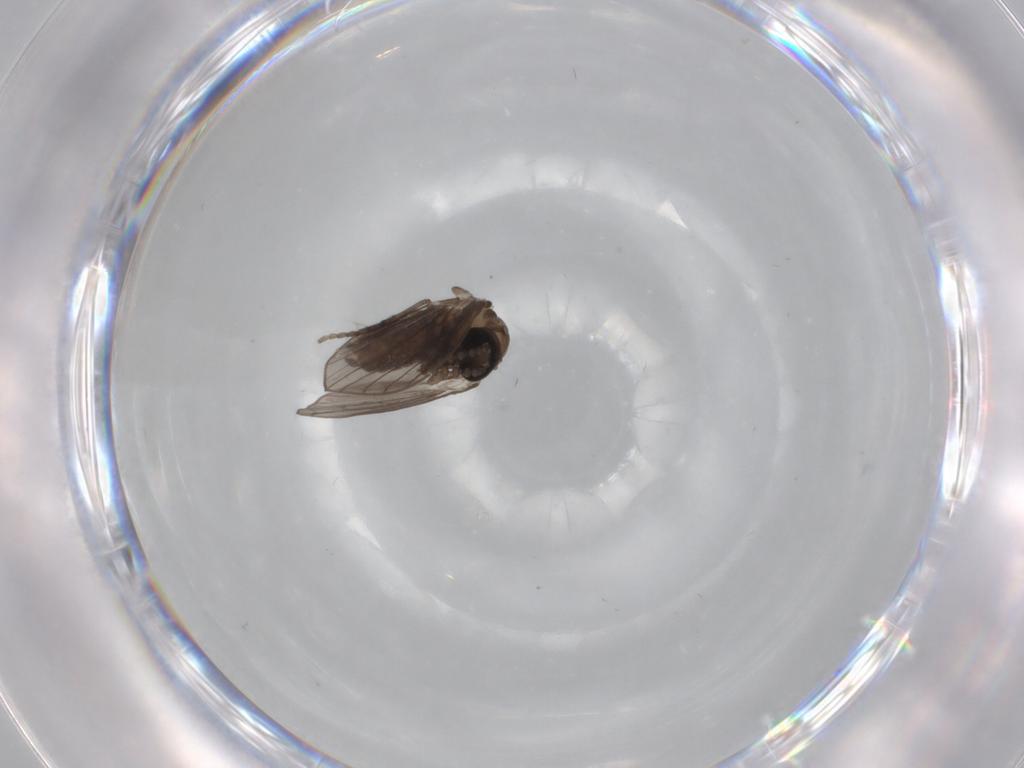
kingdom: Animalia
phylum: Arthropoda
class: Insecta
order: Diptera
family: Psychodidae
